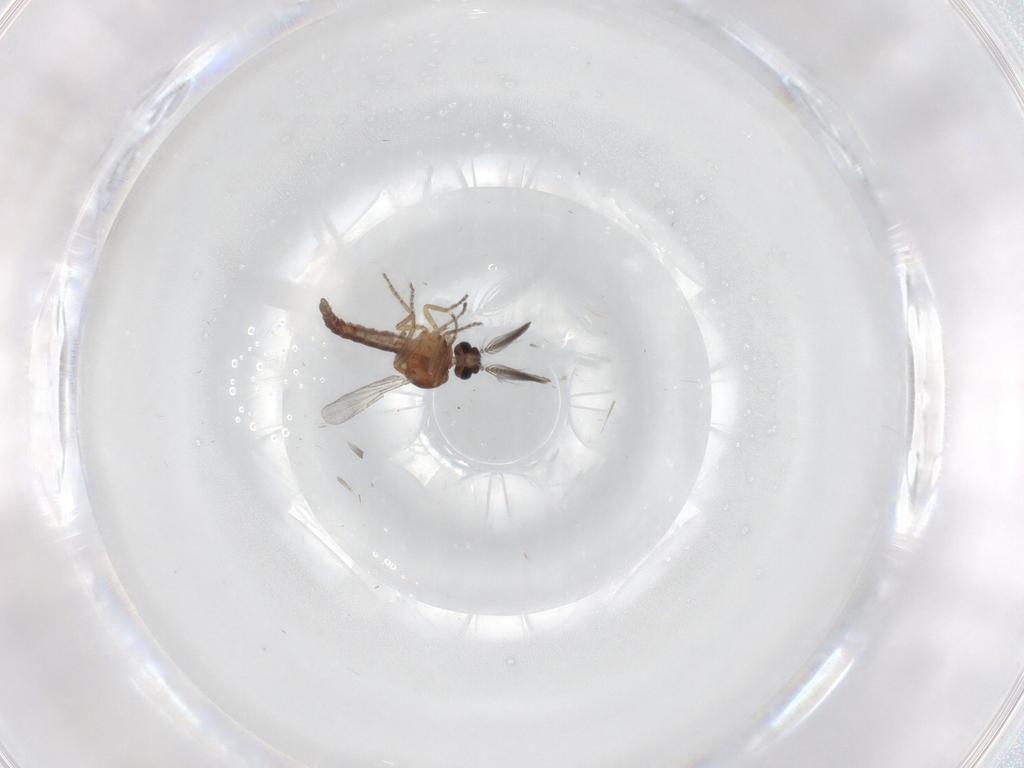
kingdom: Animalia
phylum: Arthropoda
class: Insecta
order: Diptera
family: Ceratopogonidae
